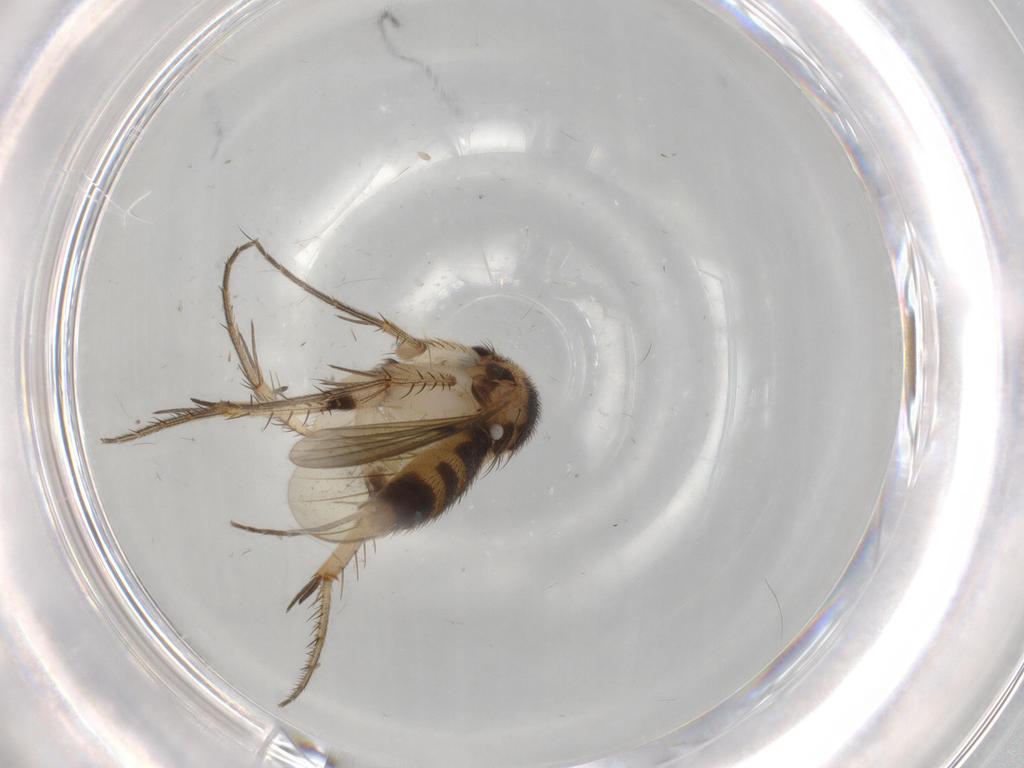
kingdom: Animalia
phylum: Arthropoda
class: Insecta
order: Diptera
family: Mycetophilidae
